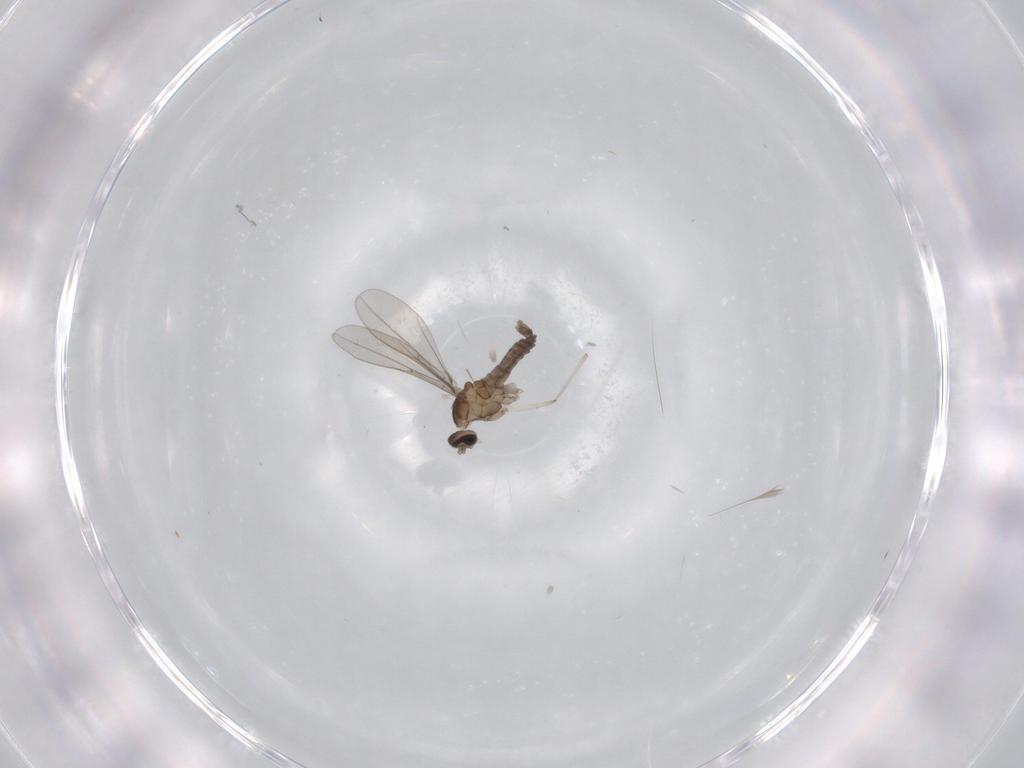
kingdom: Animalia
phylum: Arthropoda
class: Insecta
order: Diptera
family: Cecidomyiidae
